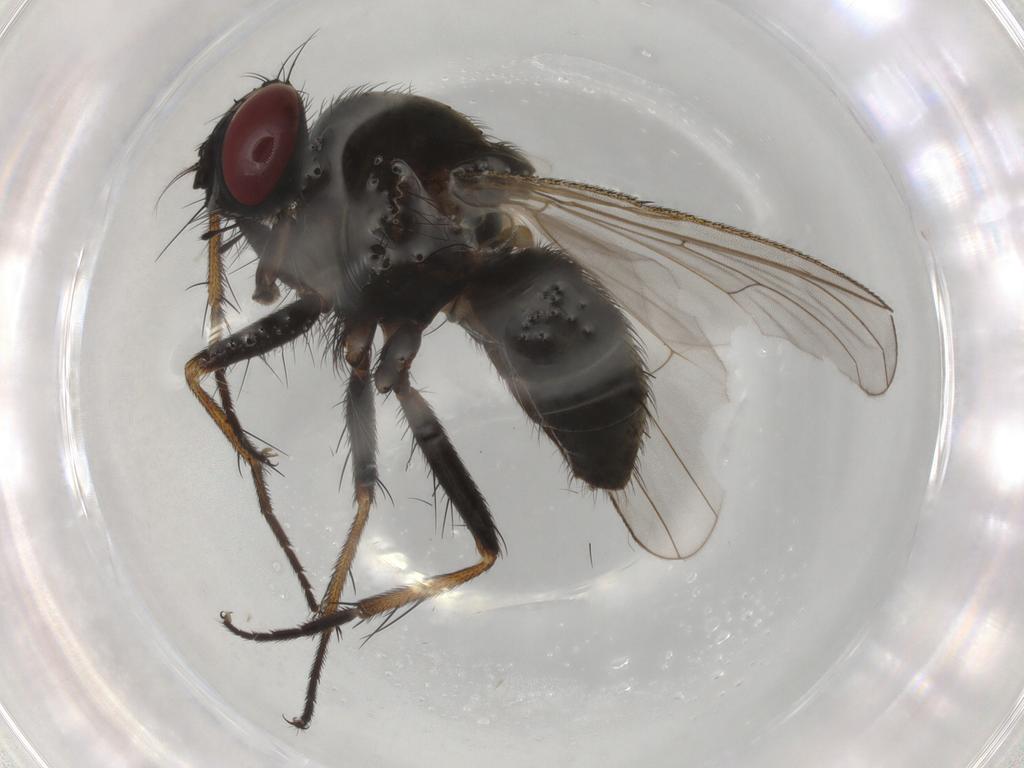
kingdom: Animalia
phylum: Arthropoda
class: Insecta
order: Diptera
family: Muscidae
